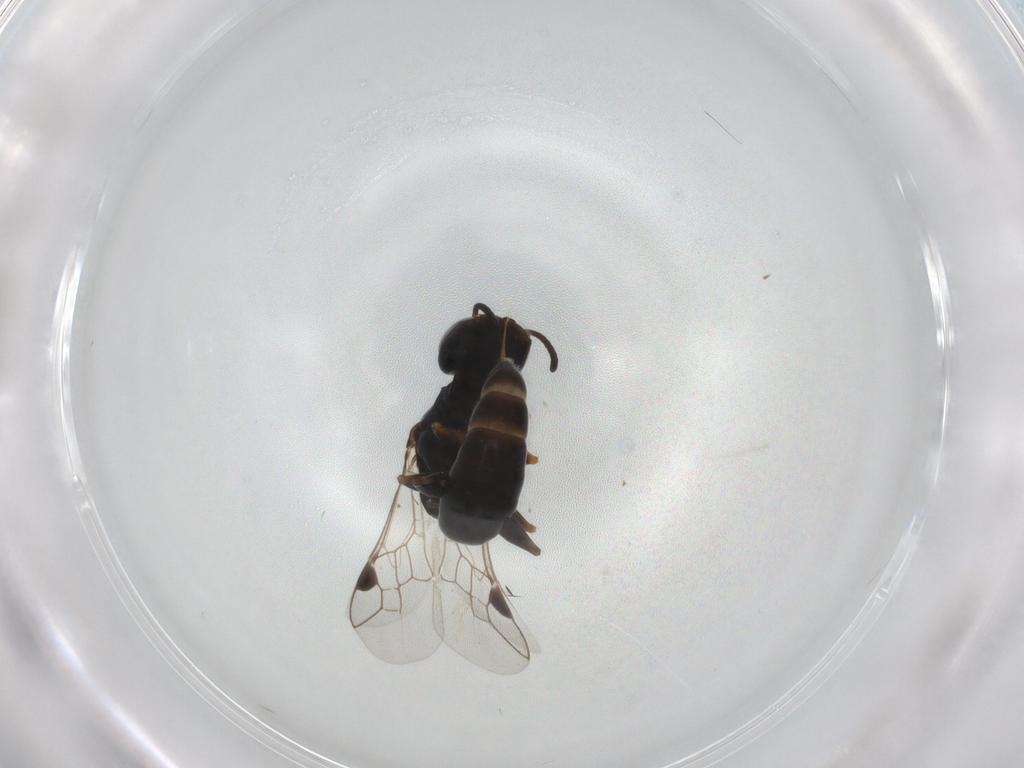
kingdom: Animalia
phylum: Arthropoda
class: Insecta
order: Hymenoptera
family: Pemphredonidae
